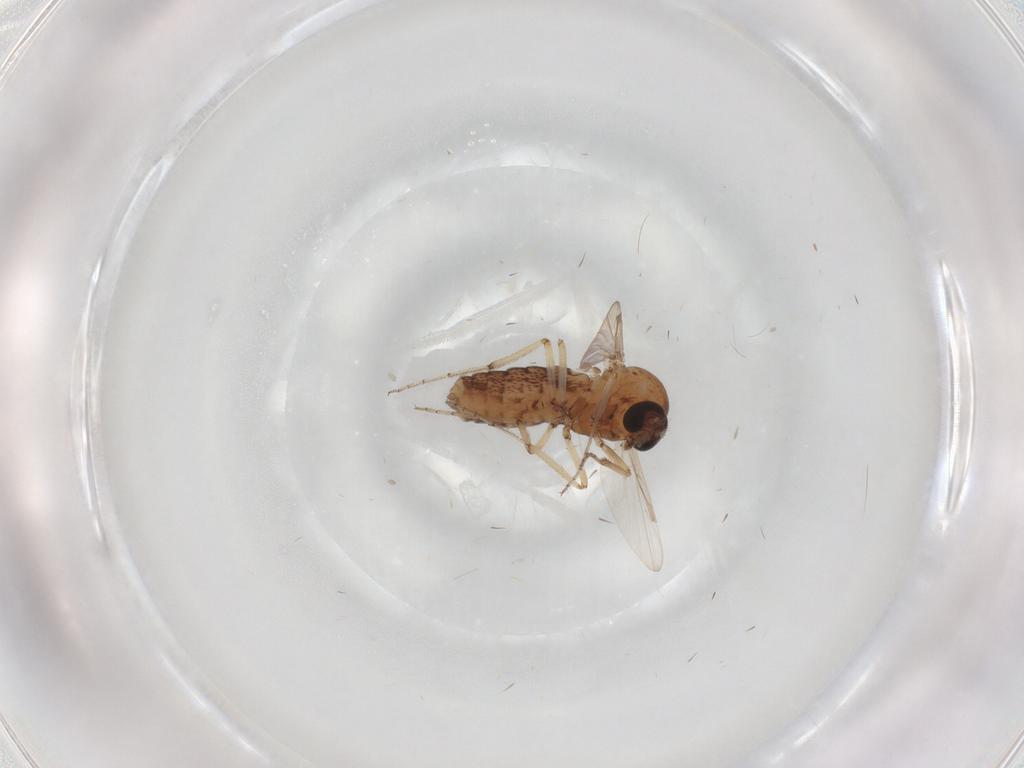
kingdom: Animalia
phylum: Arthropoda
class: Insecta
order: Diptera
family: Ceratopogonidae
